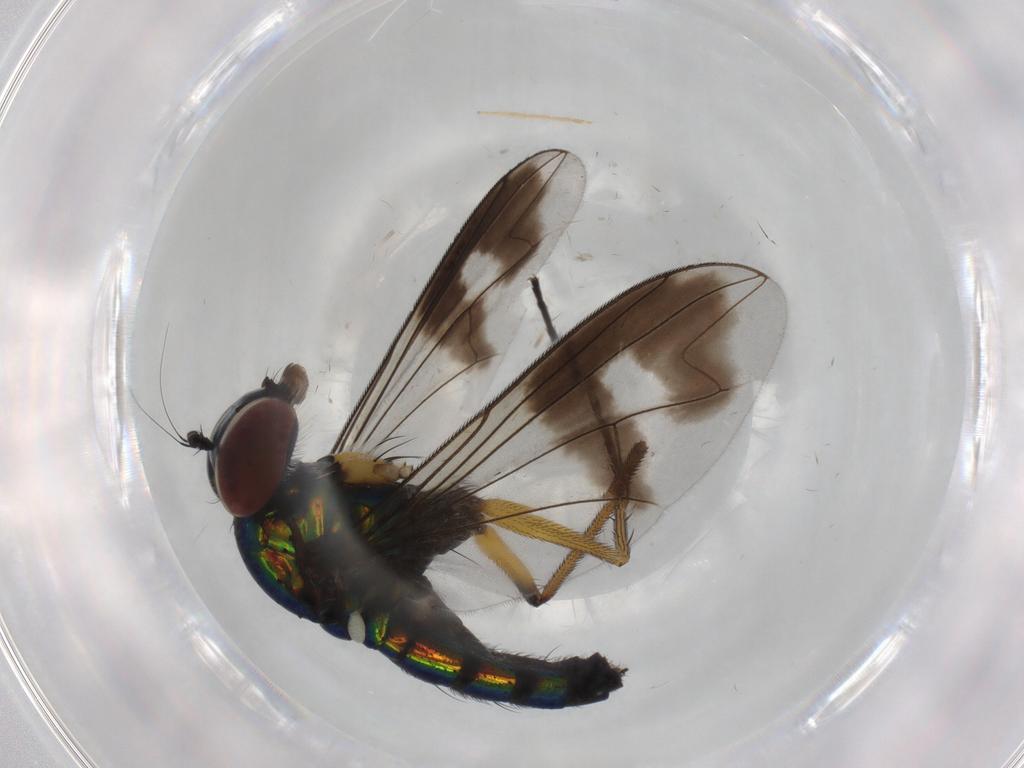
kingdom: Animalia
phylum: Arthropoda
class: Insecta
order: Diptera
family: Dolichopodidae
